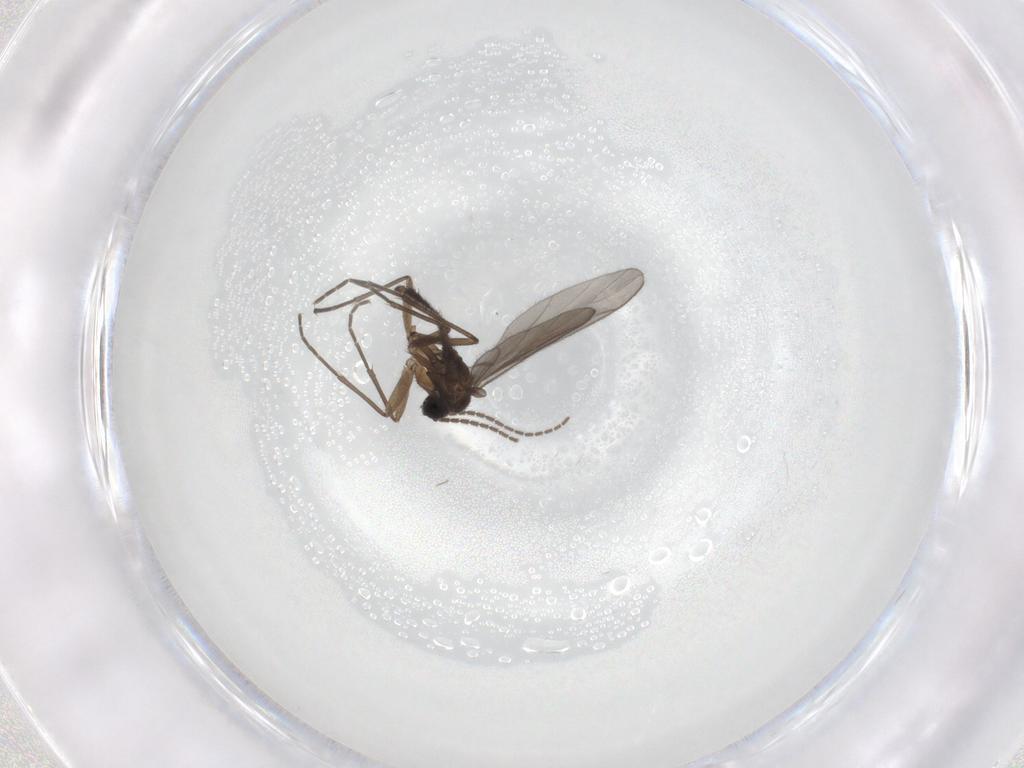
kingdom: Animalia
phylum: Arthropoda
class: Insecta
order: Diptera
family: Sciaridae
